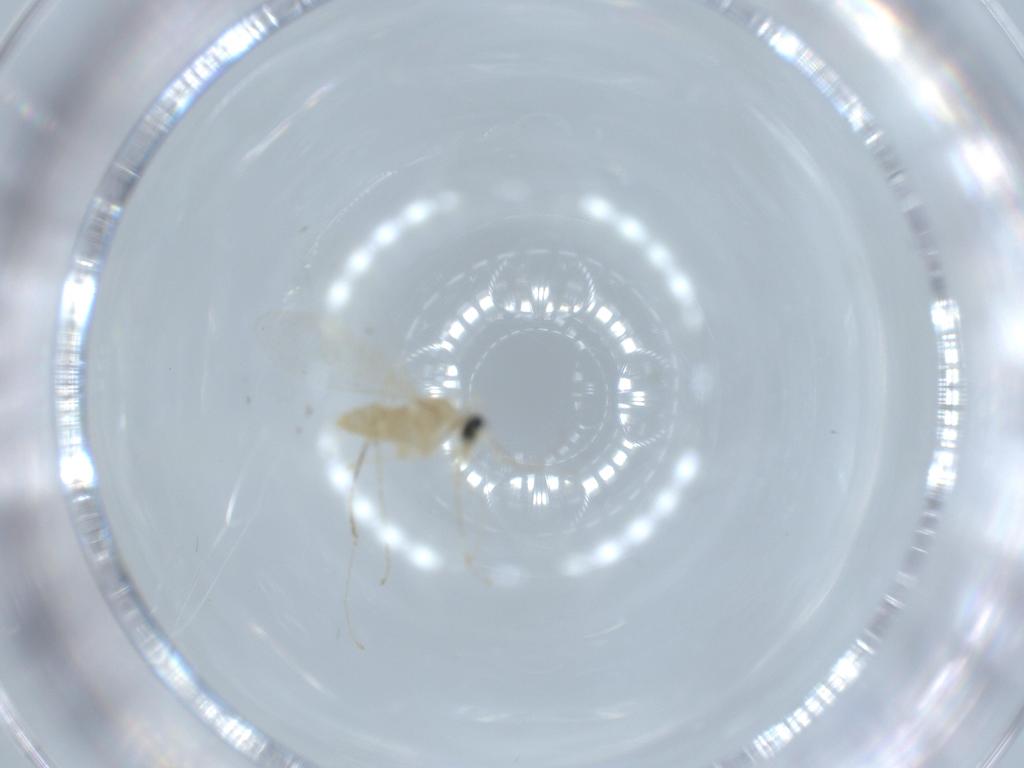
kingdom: Animalia
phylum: Arthropoda
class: Insecta
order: Diptera
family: Cecidomyiidae
